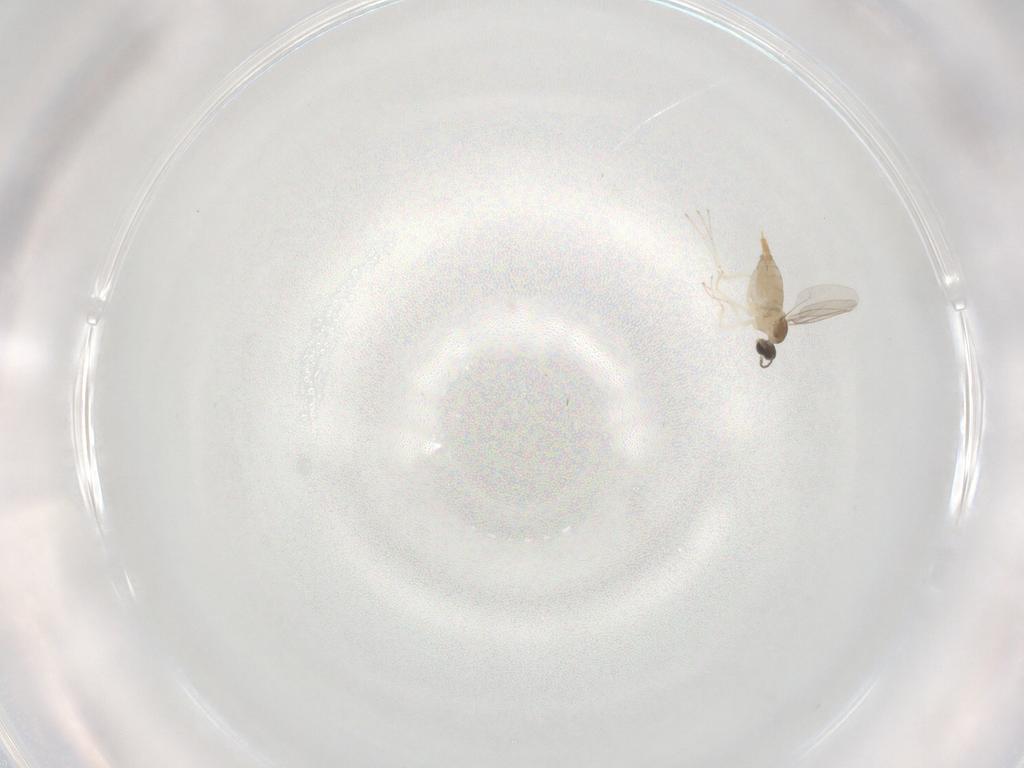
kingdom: Animalia
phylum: Arthropoda
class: Insecta
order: Diptera
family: Cecidomyiidae
